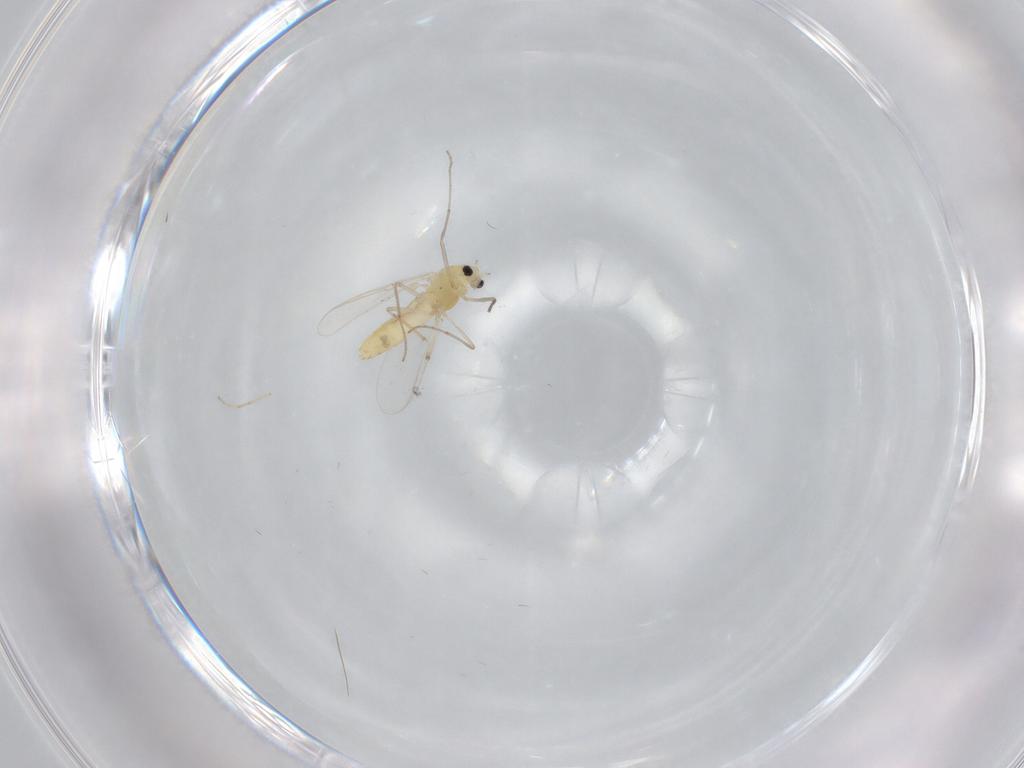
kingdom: Animalia
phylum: Arthropoda
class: Insecta
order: Diptera
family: Chironomidae
